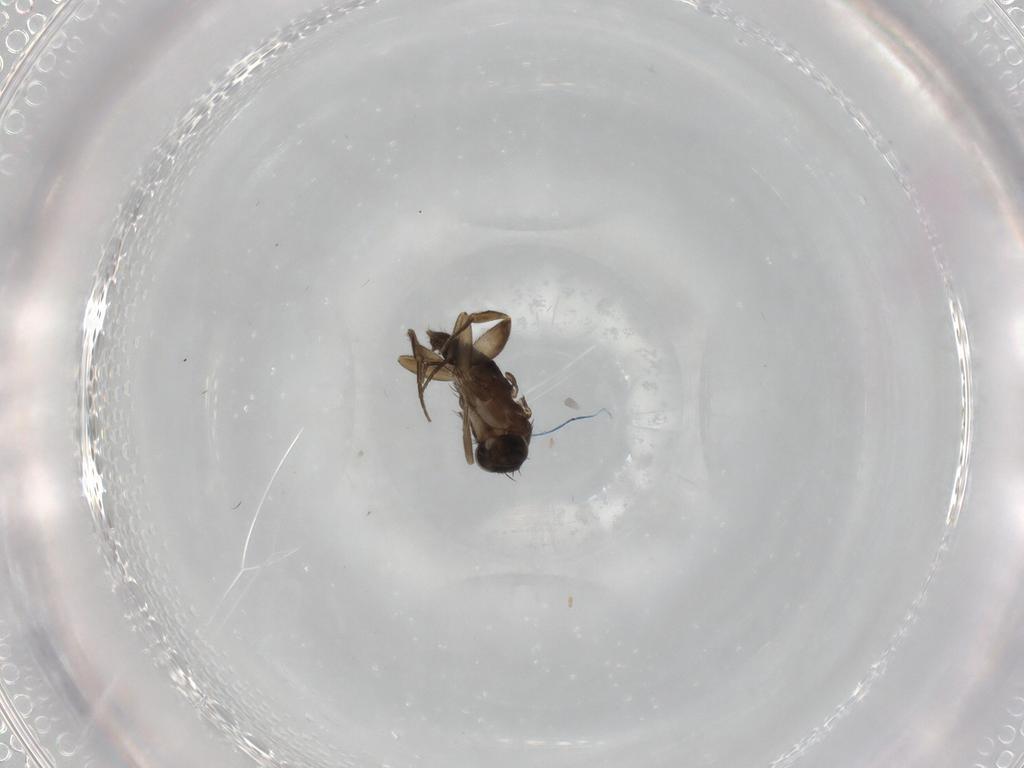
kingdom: Animalia
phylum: Arthropoda
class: Insecta
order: Diptera
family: Phoridae
